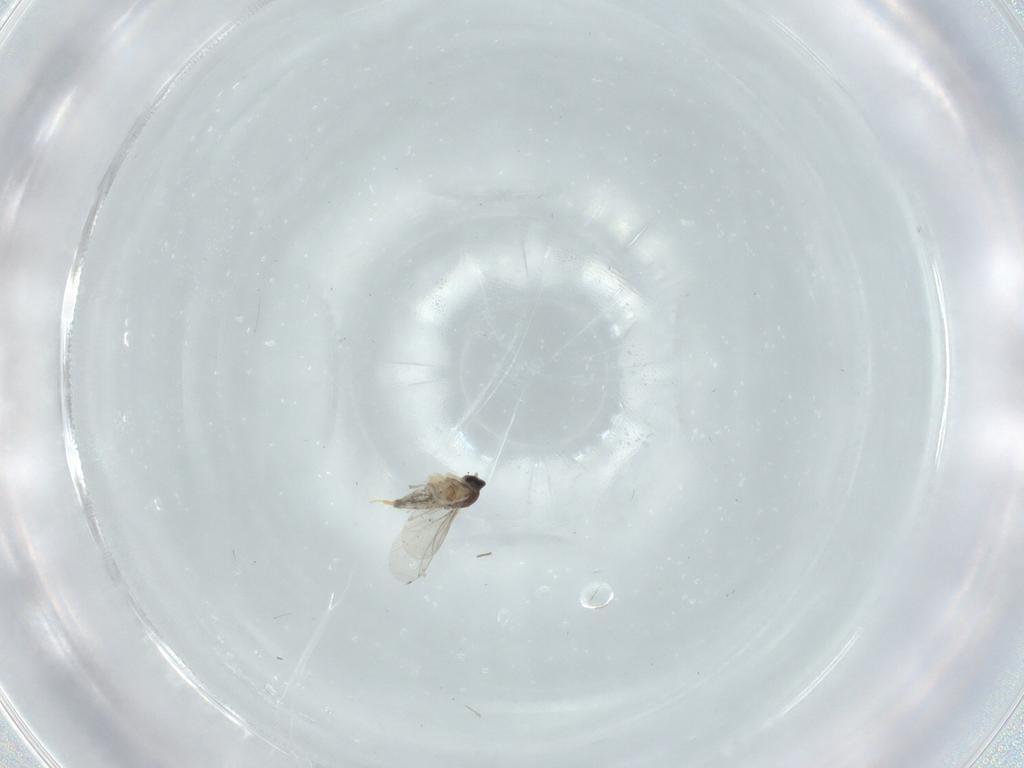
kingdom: Animalia
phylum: Arthropoda
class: Insecta
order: Diptera
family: Cecidomyiidae
